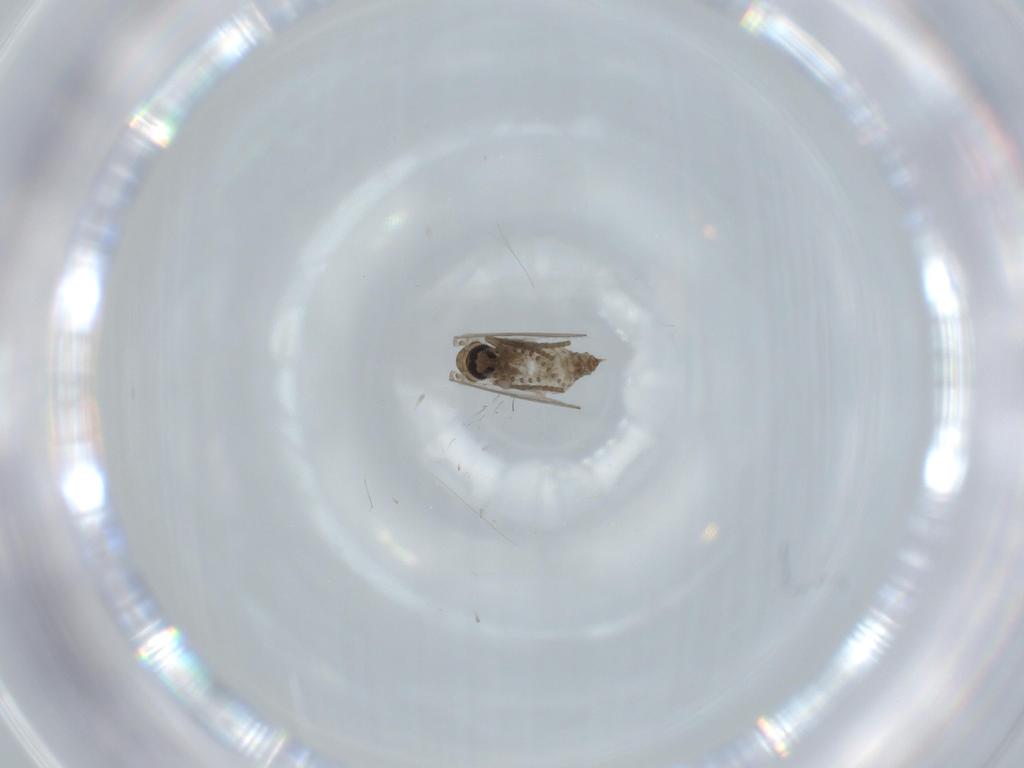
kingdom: Animalia
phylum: Arthropoda
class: Insecta
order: Diptera
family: Psychodidae
